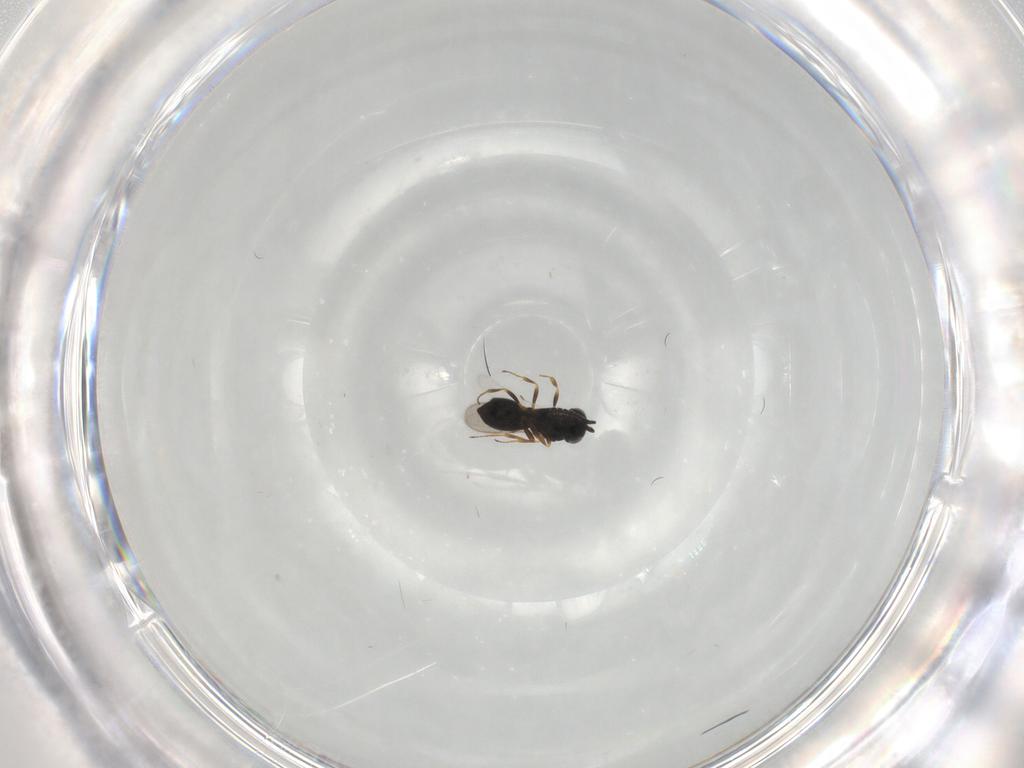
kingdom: Animalia
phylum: Arthropoda
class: Insecta
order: Hymenoptera
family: Scelionidae
